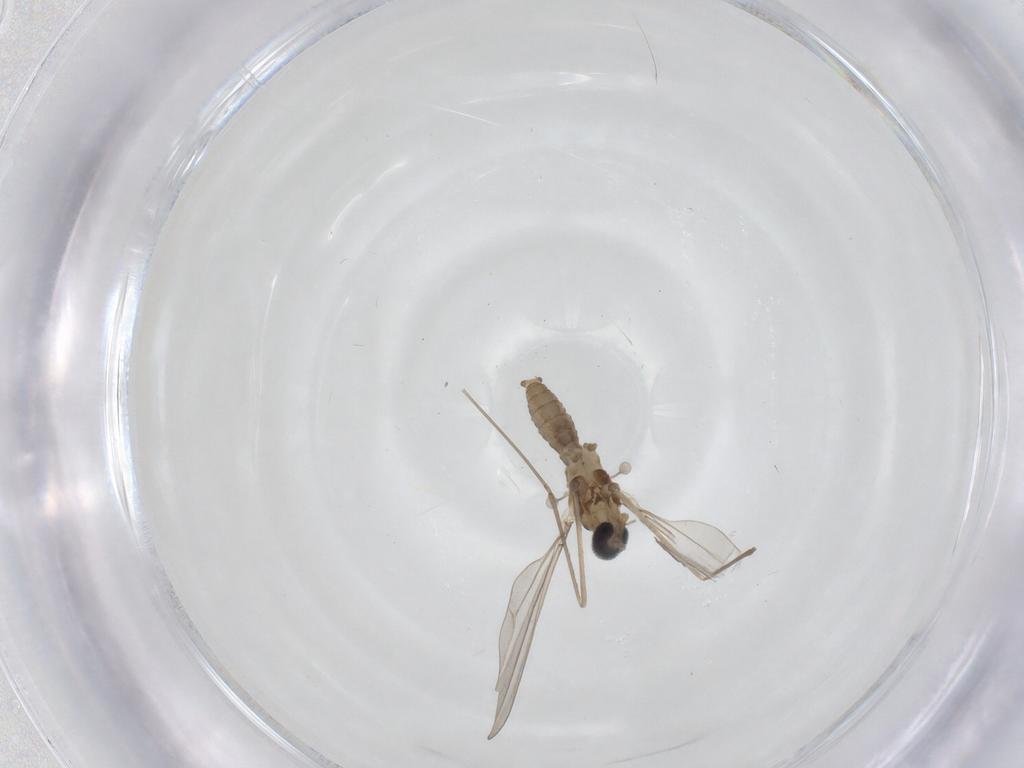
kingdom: Animalia
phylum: Arthropoda
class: Insecta
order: Diptera
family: Cecidomyiidae
